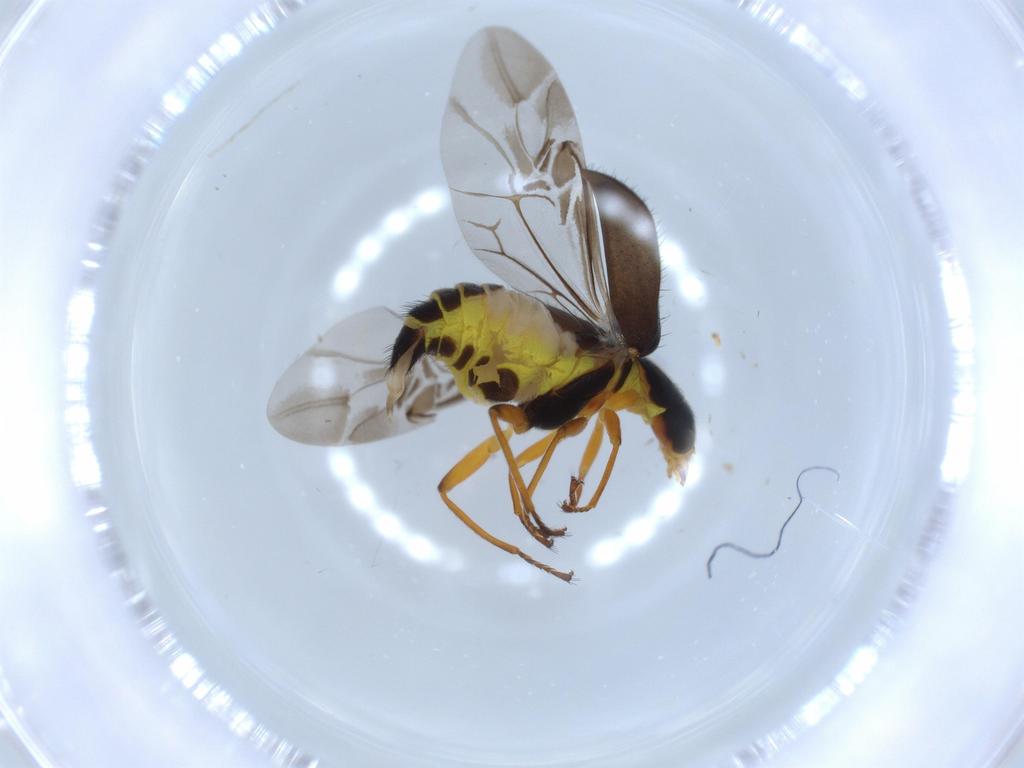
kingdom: Animalia
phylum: Arthropoda
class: Insecta
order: Coleoptera
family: Melyridae
